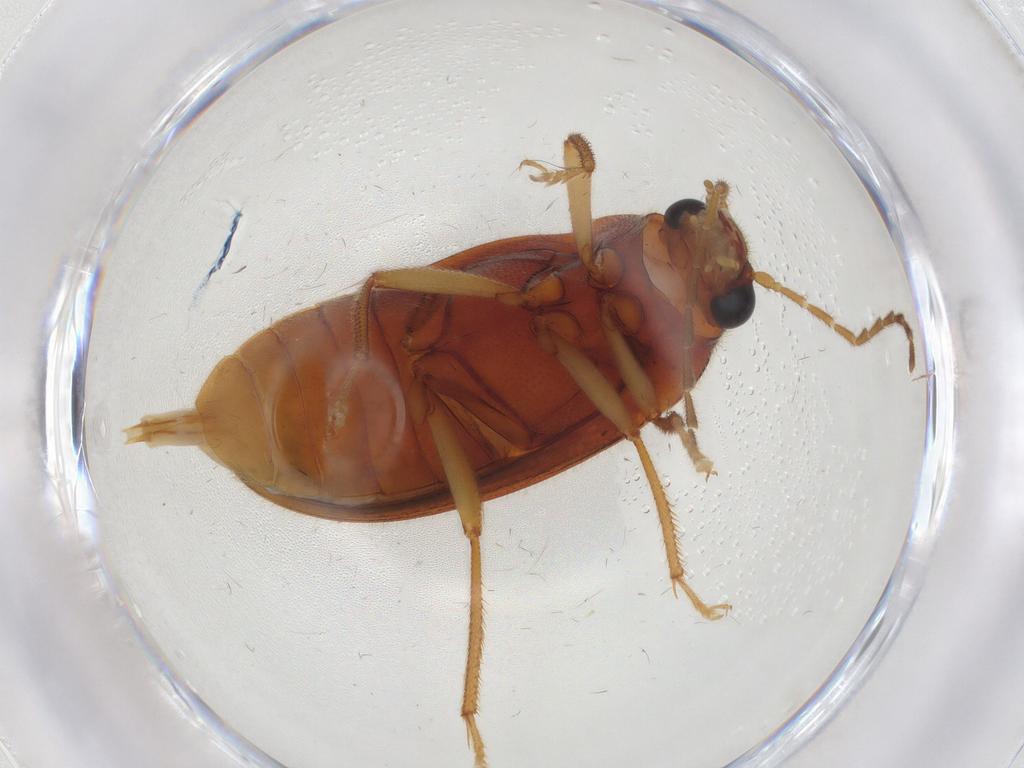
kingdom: Animalia
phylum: Arthropoda
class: Insecta
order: Coleoptera
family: Ptilodactylidae
